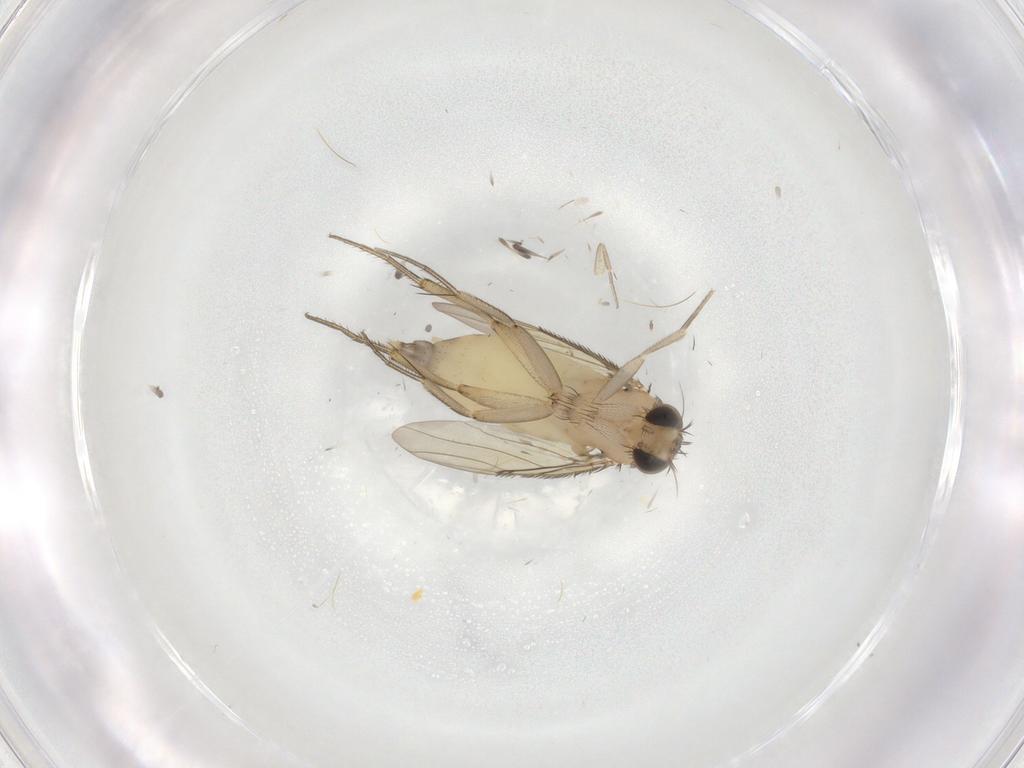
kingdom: Animalia
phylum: Arthropoda
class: Insecta
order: Diptera
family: Phoridae
